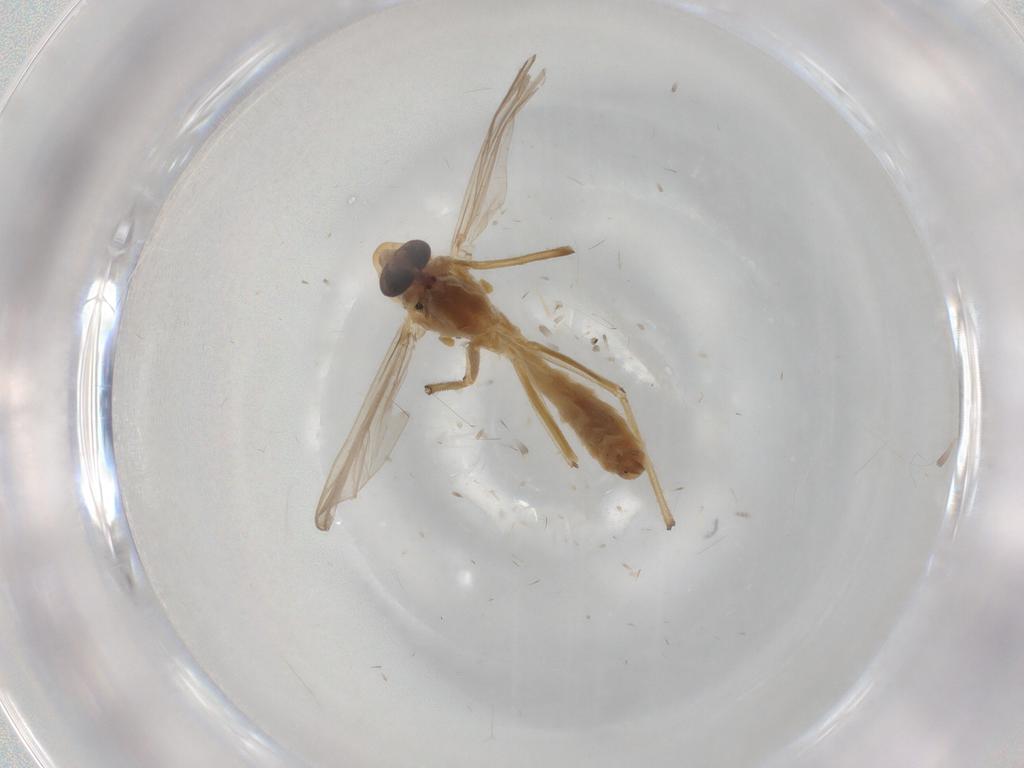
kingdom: Animalia
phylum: Arthropoda
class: Insecta
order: Diptera
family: Chironomidae
